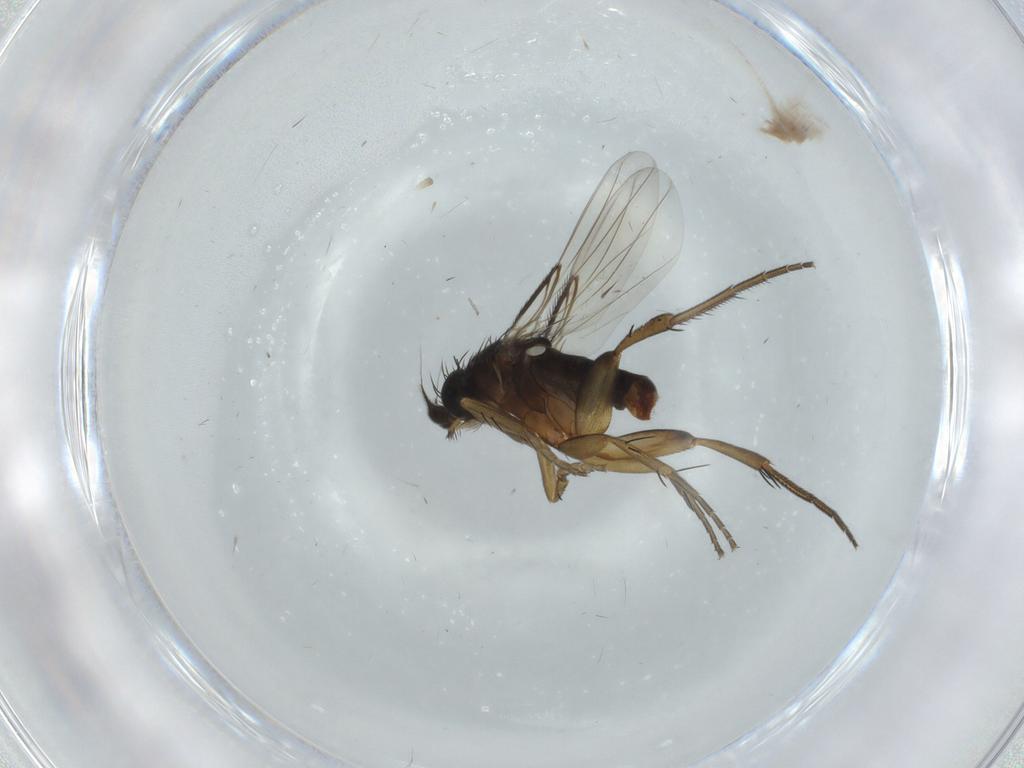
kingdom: Animalia
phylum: Arthropoda
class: Insecta
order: Diptera
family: Phoridae
